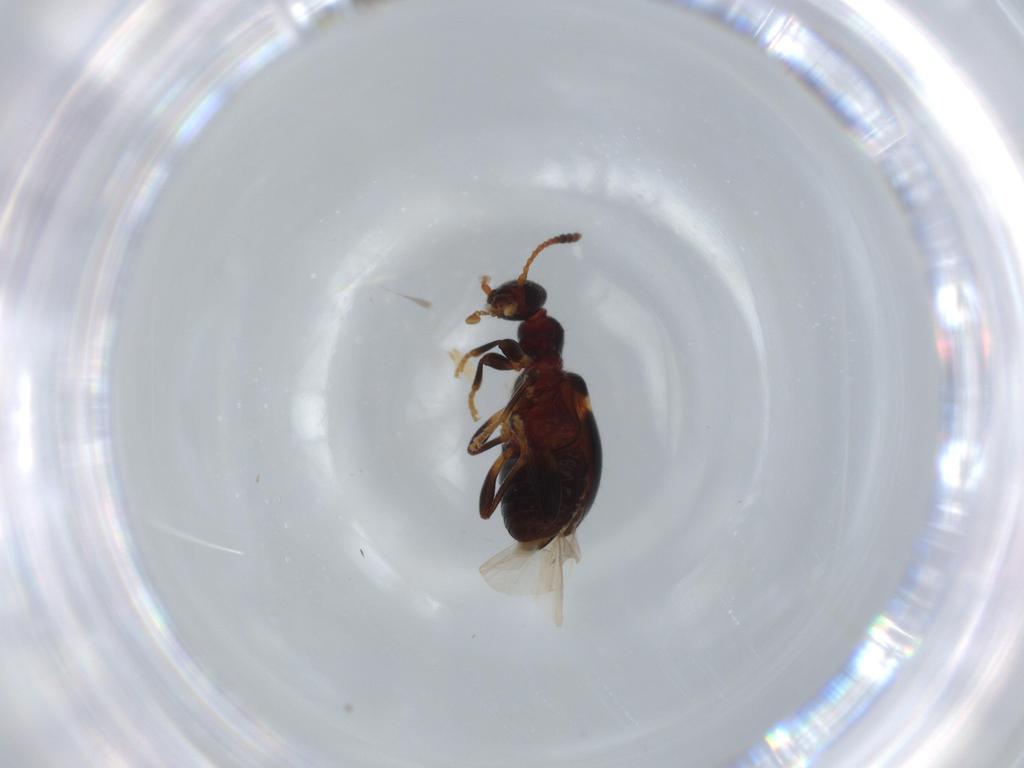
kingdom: Animalia
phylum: Arthropoda
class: Insecta
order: Coleoptera
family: Anthicidae
